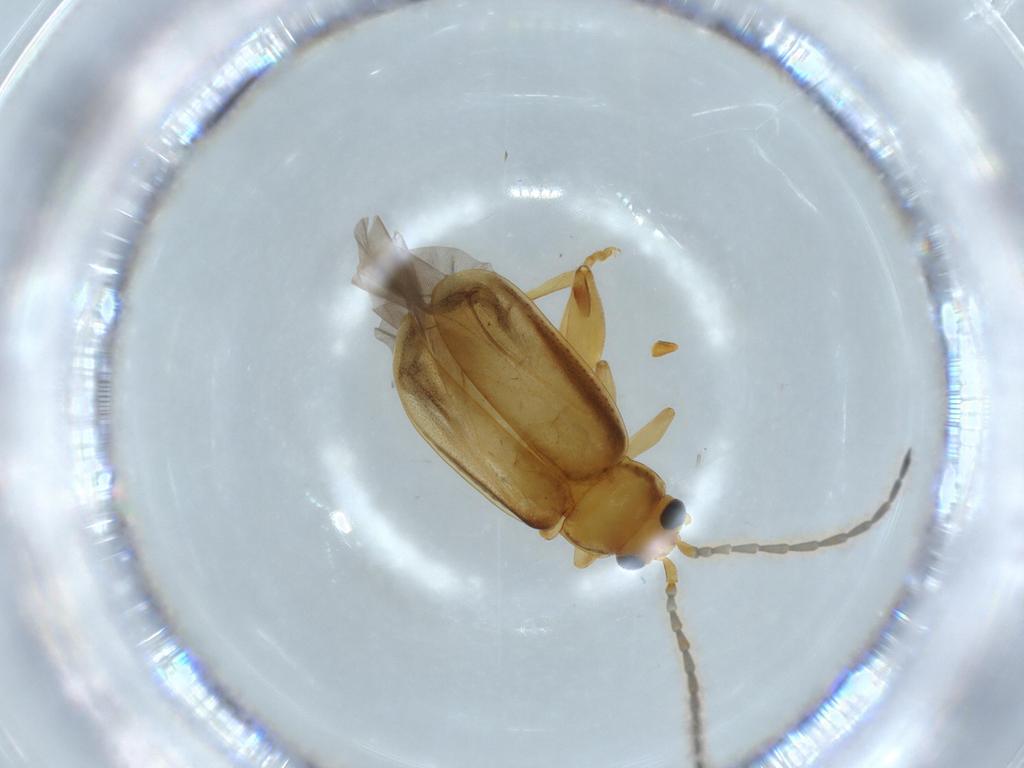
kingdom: Animalia
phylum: Arthropoda
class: Insecta
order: Coleoptera
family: Chrysomelidae
